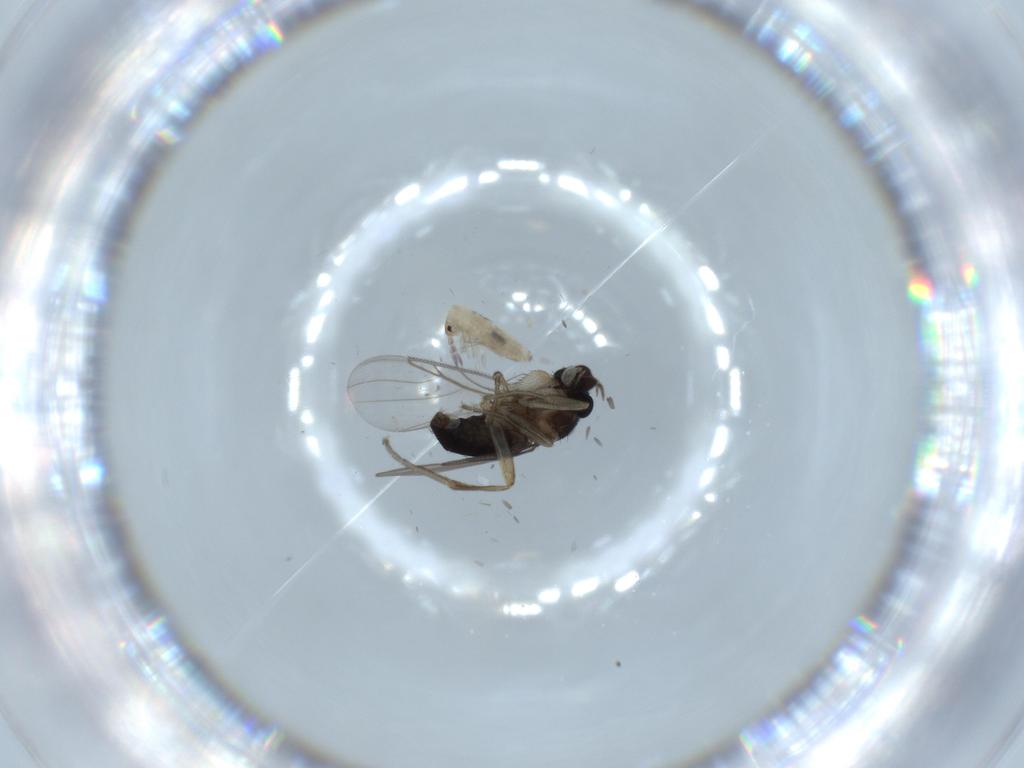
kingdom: Animalia
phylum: Arthropoda
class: Collembola
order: Entomobryomorpha
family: Entomobryidae
